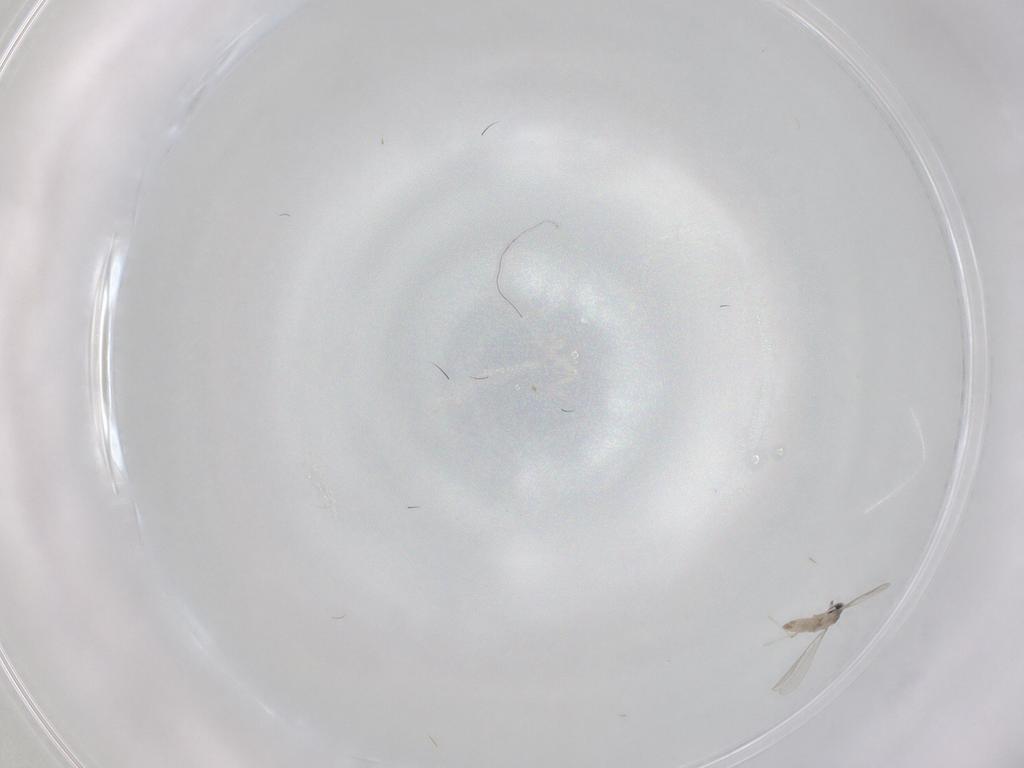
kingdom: Animalia
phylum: Arthropoda
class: Insecta
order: Diptera
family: Cecidomyiidae
